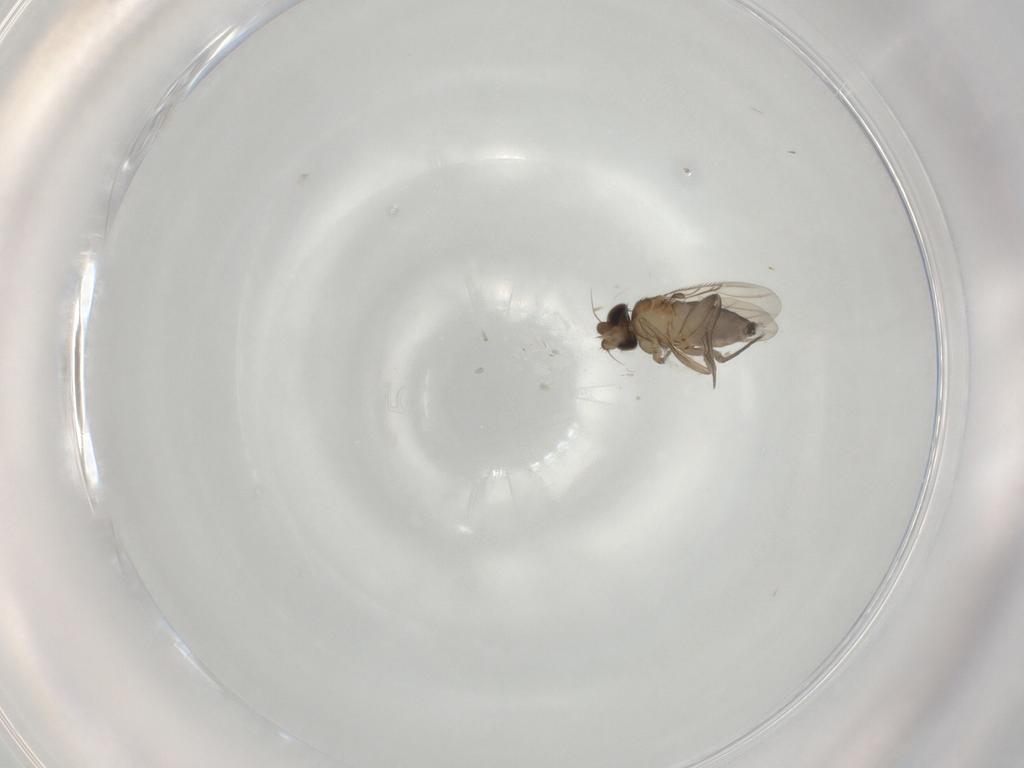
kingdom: Animalia
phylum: Arthropoda
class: Insecta
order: Diptera
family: Phoridae
